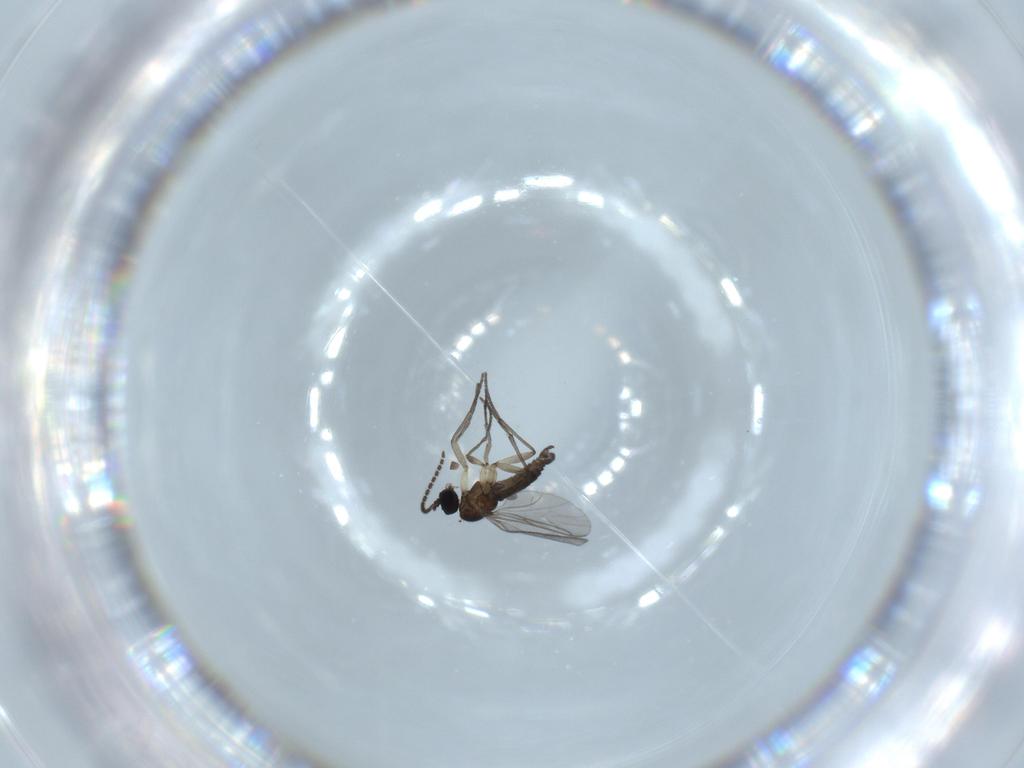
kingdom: Animalia
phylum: Arthropoda
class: Insecta
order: Diptera
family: Sciaridae
